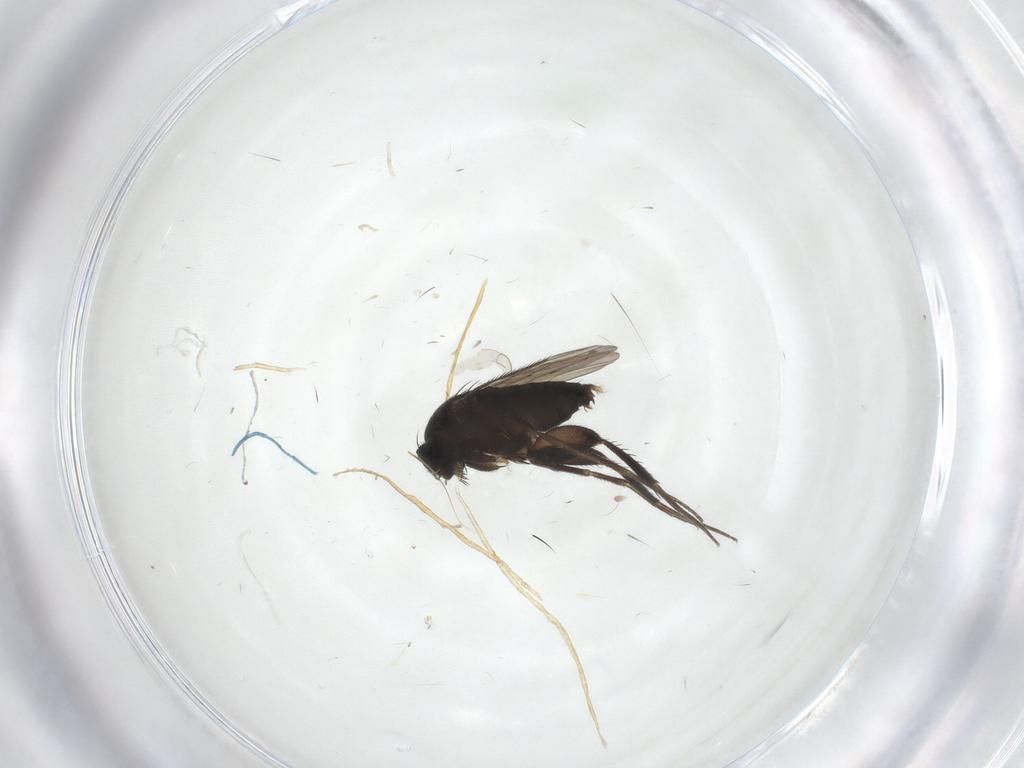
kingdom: Animalia
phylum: Arthropoda
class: Insecta
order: Diptera
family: Phoridae
